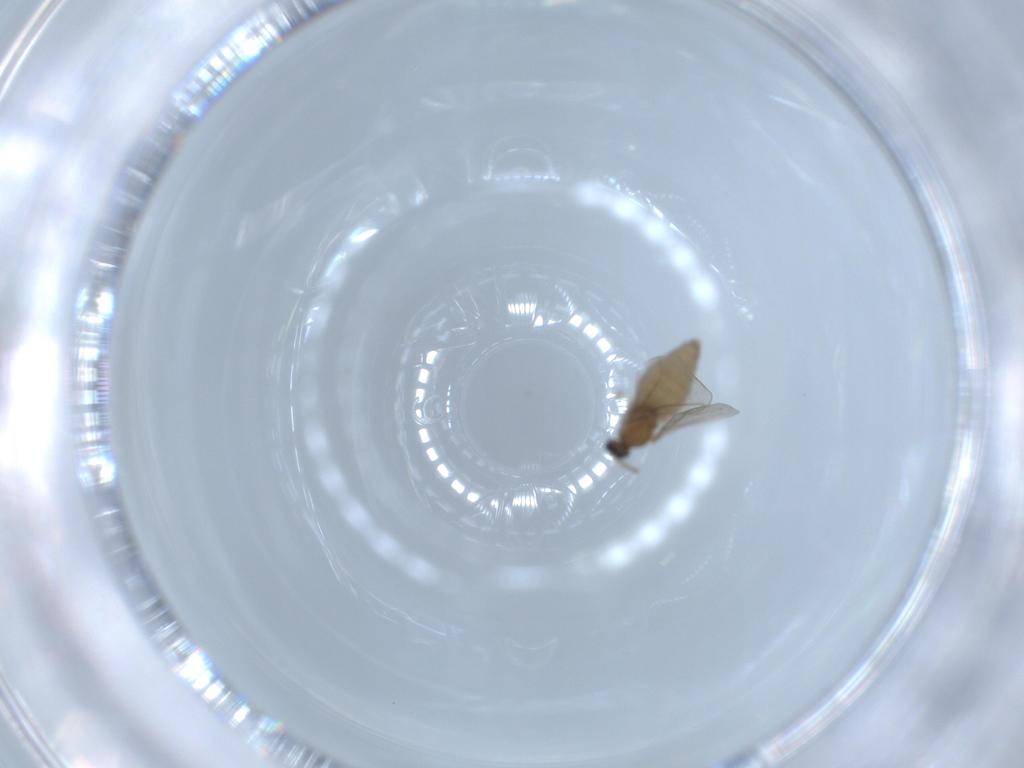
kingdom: Animalia
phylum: Arthropoda
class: Insecta
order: Diptera
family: Cecidomyiidae
